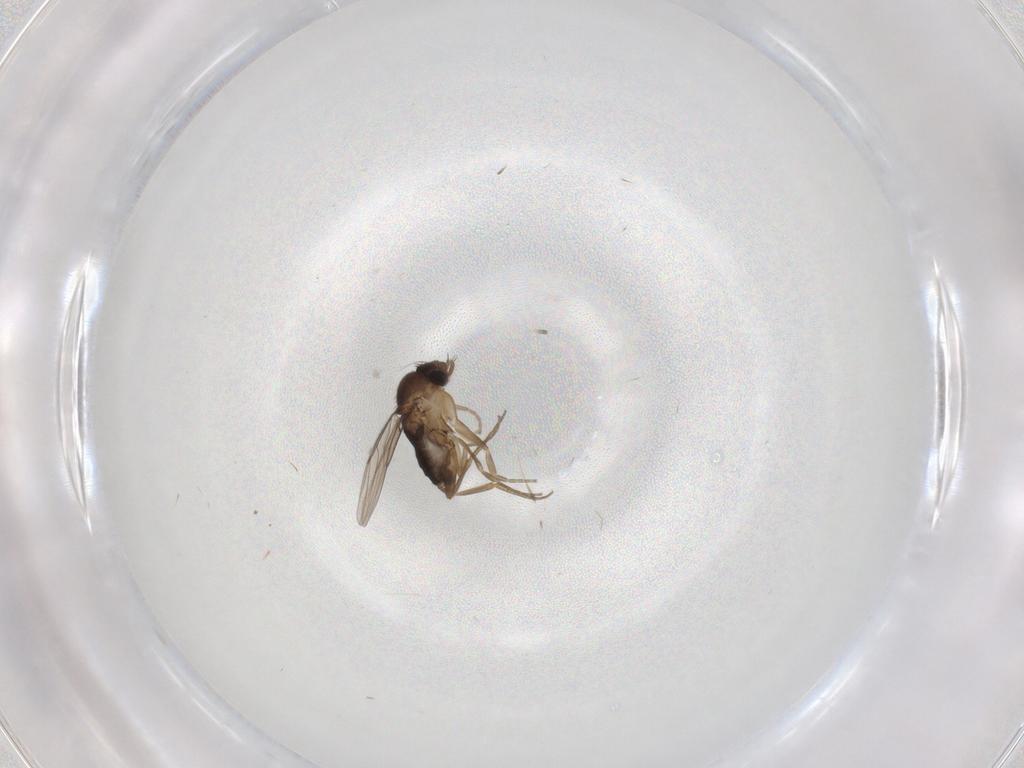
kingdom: Animalia
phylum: Arthropoda
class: Insecta
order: Diptera
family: Phoridae
